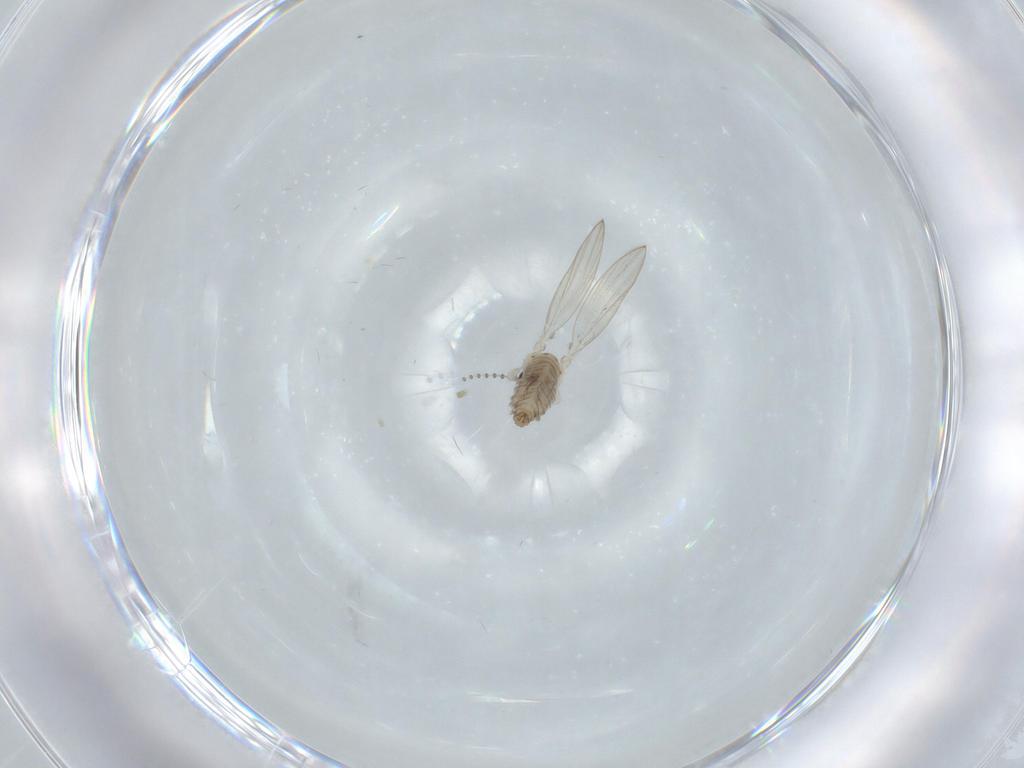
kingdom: Animalia
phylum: Arthropoda
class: Insecta
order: Diptera
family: Psychodidae
